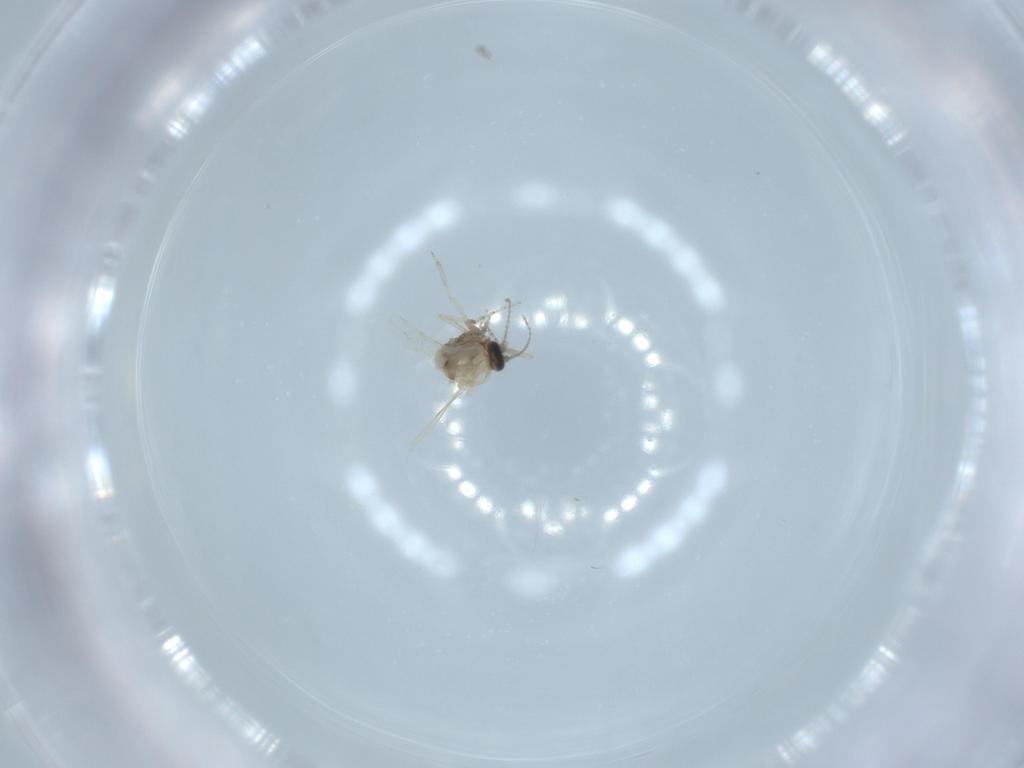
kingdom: Animalia
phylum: Arthropoda
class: Insecta
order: Diptera
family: Ceratopogonidae
